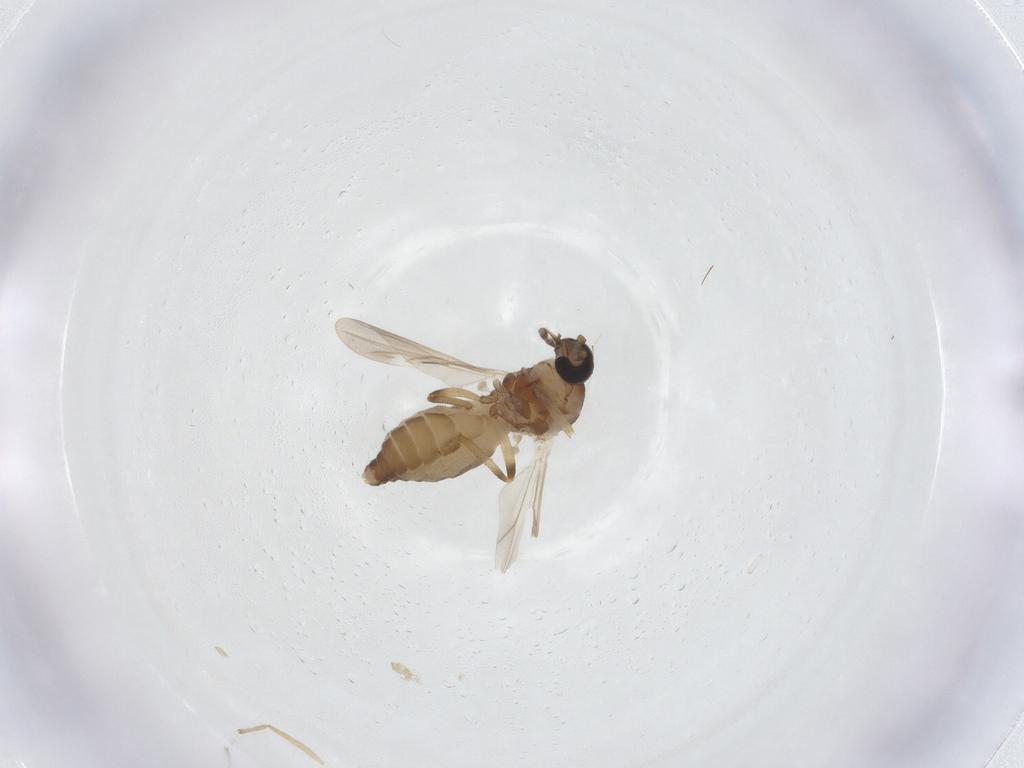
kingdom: Animalia
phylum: Arthropoda
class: Insecta
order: Diptera
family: Ceratopogonidae
